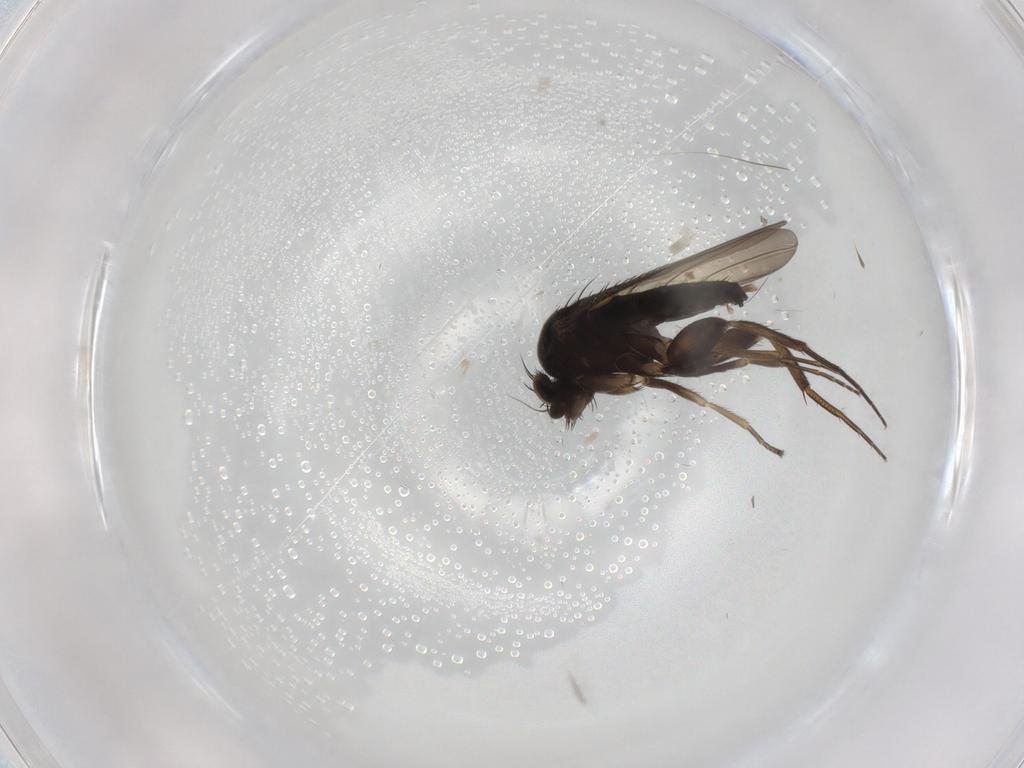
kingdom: Animalia
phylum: Arthropoda
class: Insecta
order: Diptera
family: Phoridae
